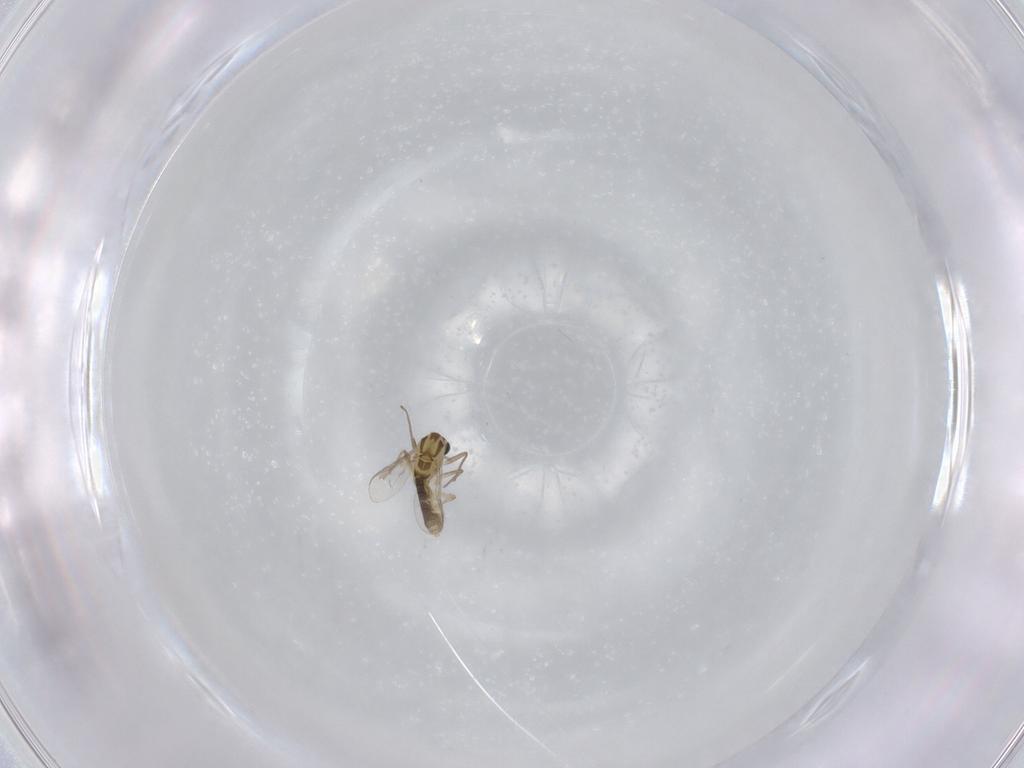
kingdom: Animalia
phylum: Arthropoda
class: Insecta
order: Diptera
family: Chironomidae
